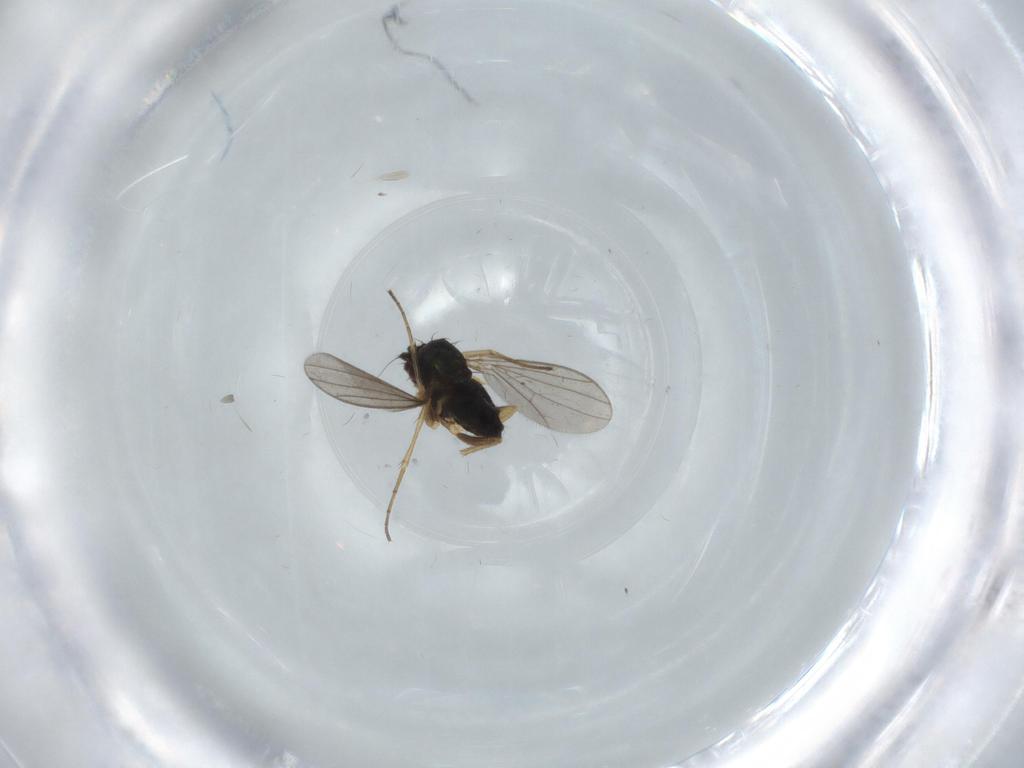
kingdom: Animalia
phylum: Arthropoda
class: Insecta
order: Diptera
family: Dolichopodidae
